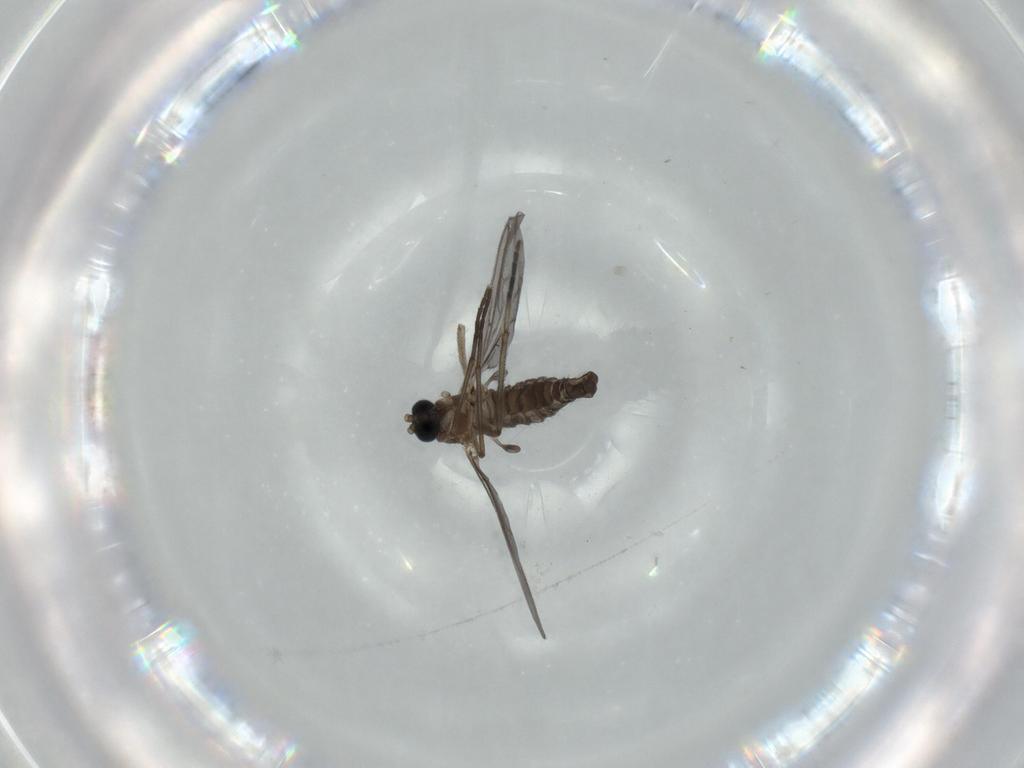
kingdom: Animalia
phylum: Arthropoda
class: Insecta
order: Diptera
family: Sciaridae
